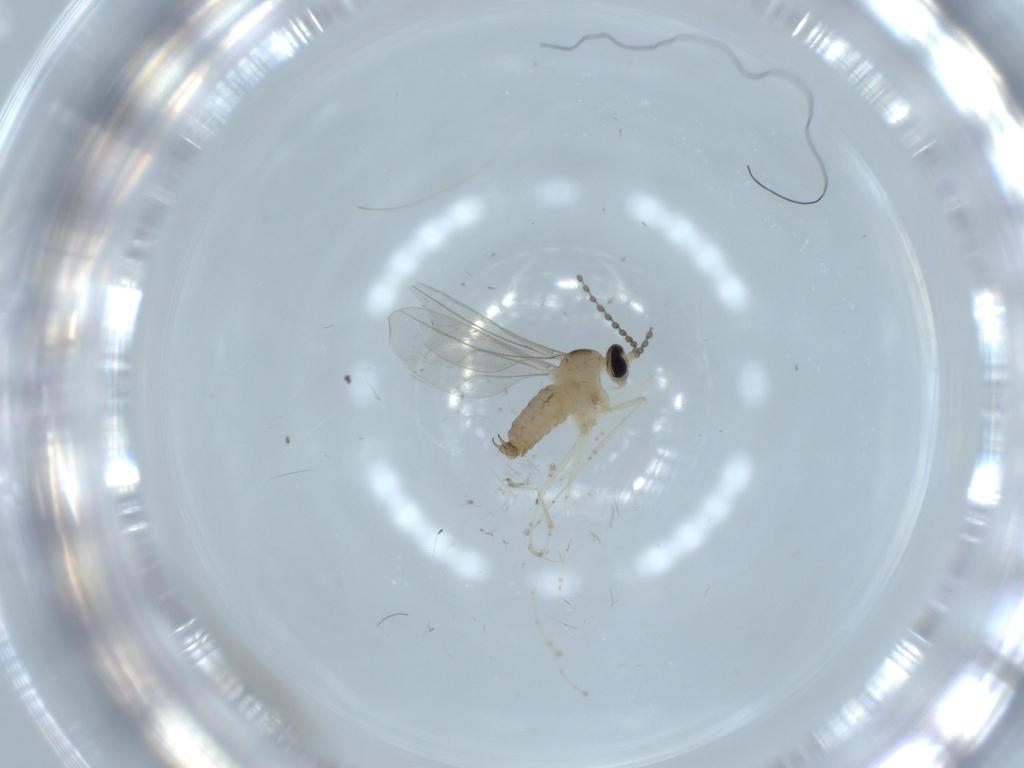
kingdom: Animalia
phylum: Arthropoda
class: Insecta
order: Diptera
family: Cecidomyiidae
